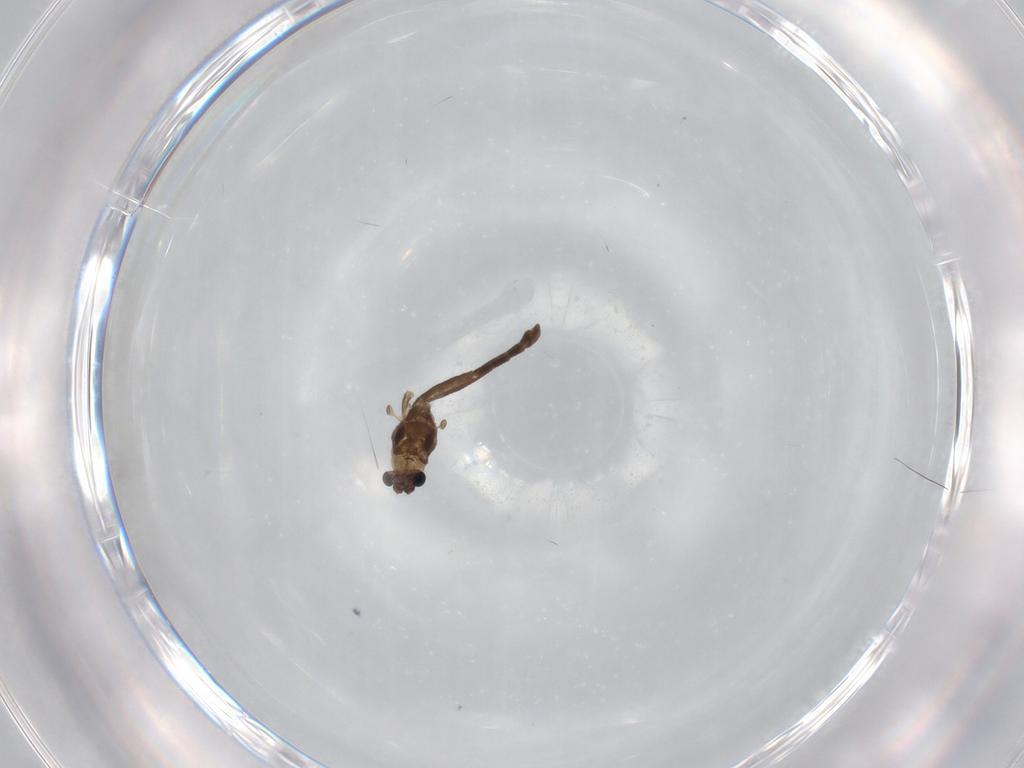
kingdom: Animalia
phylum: Arthropoda
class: Insecta
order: Diptera
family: Chironomidae
